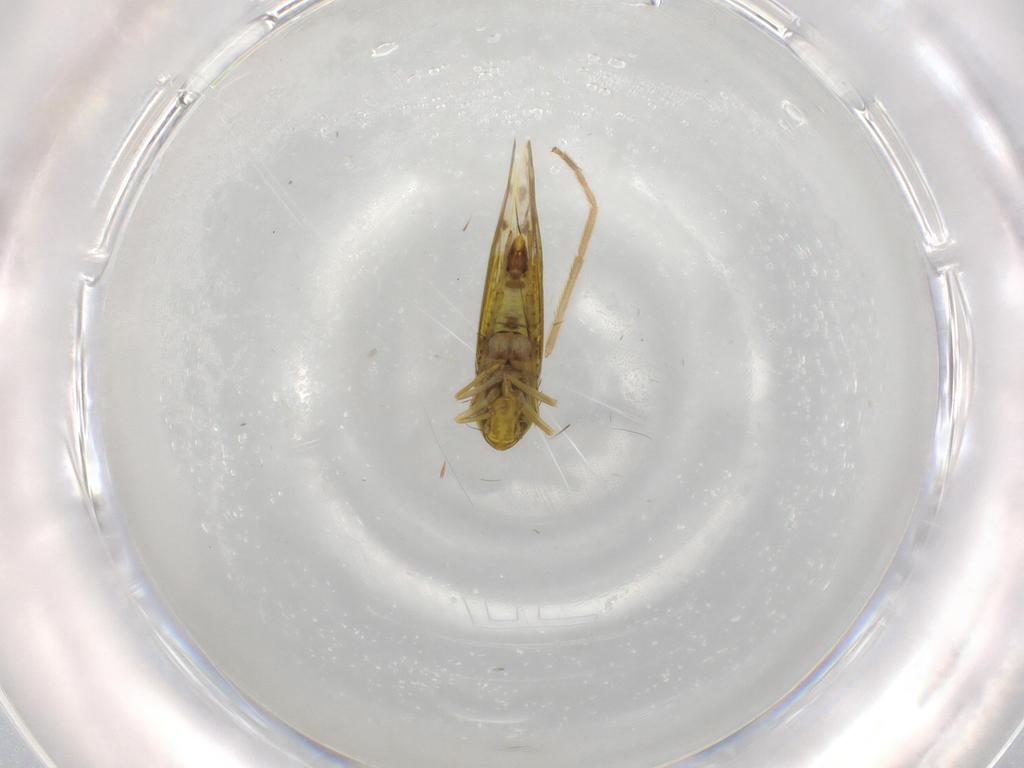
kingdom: Animalia
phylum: Arthropoda
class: Insecta
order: Hemiptera
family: Cicadellidae
